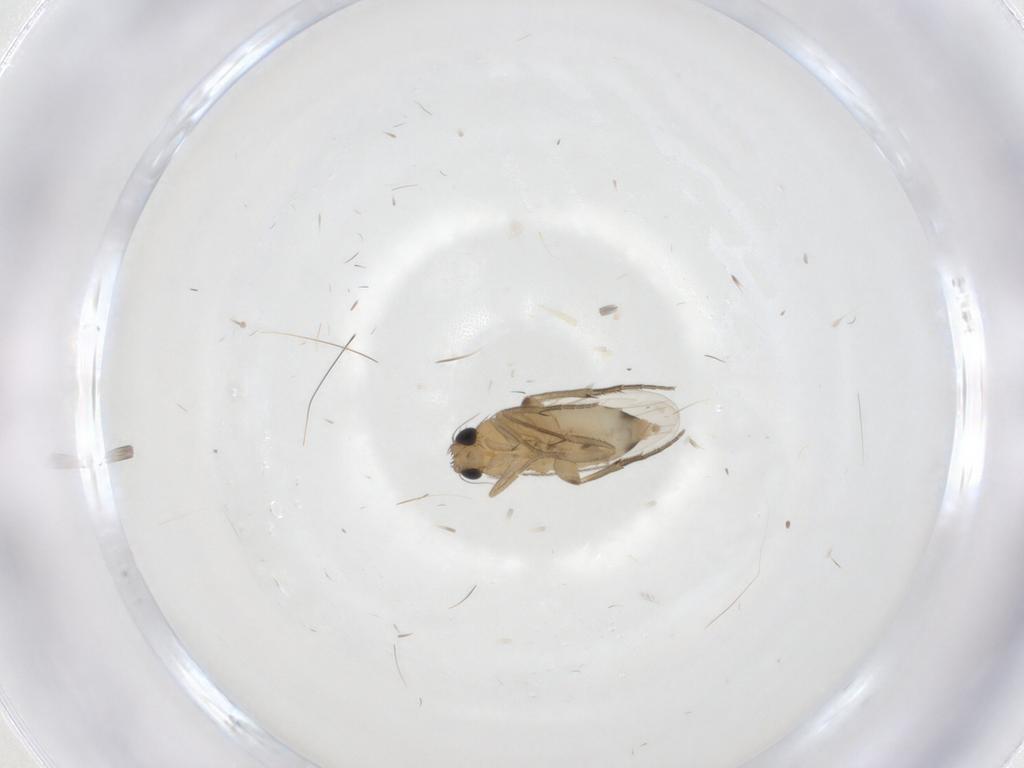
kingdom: Animalia
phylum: Arthropoda
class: Insecta
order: Diptera
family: Phoridae
